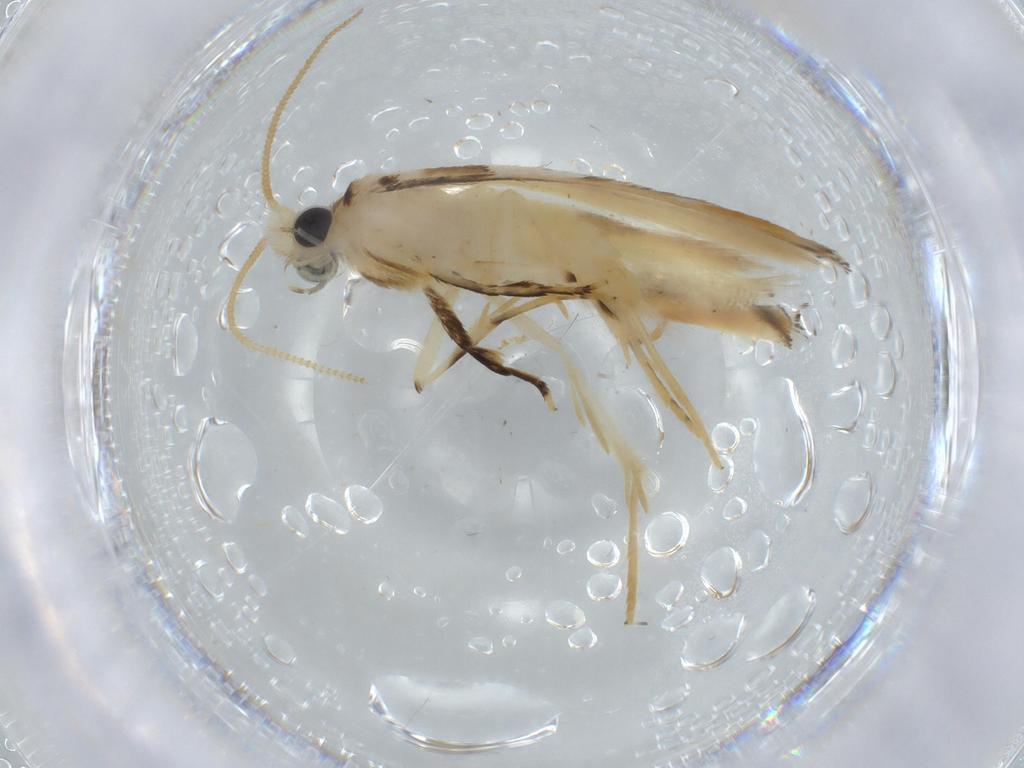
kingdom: Animalia
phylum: Arthropoda
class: Insecta
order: Lepidoptera
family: Tineidae
